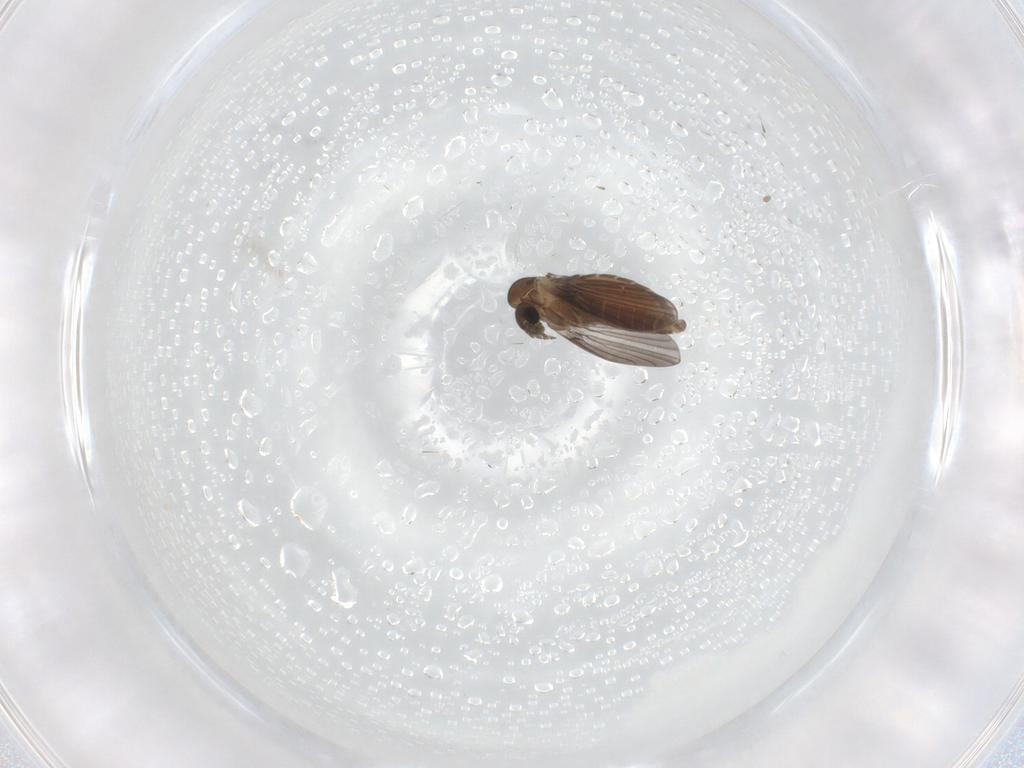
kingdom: Animalia
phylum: Arthropoda
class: Insecta
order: Diptera
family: Cecidomyiidae
